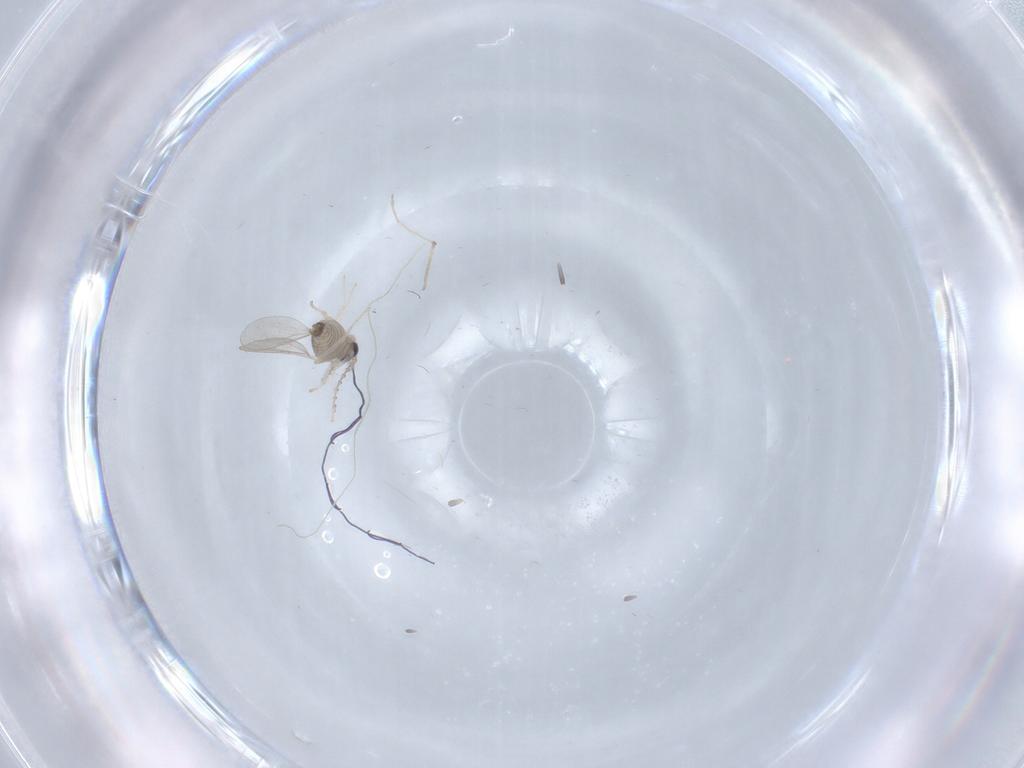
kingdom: Animalia
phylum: Arthropoda
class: Insecta
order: Diptera
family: Cecidomyiidae
